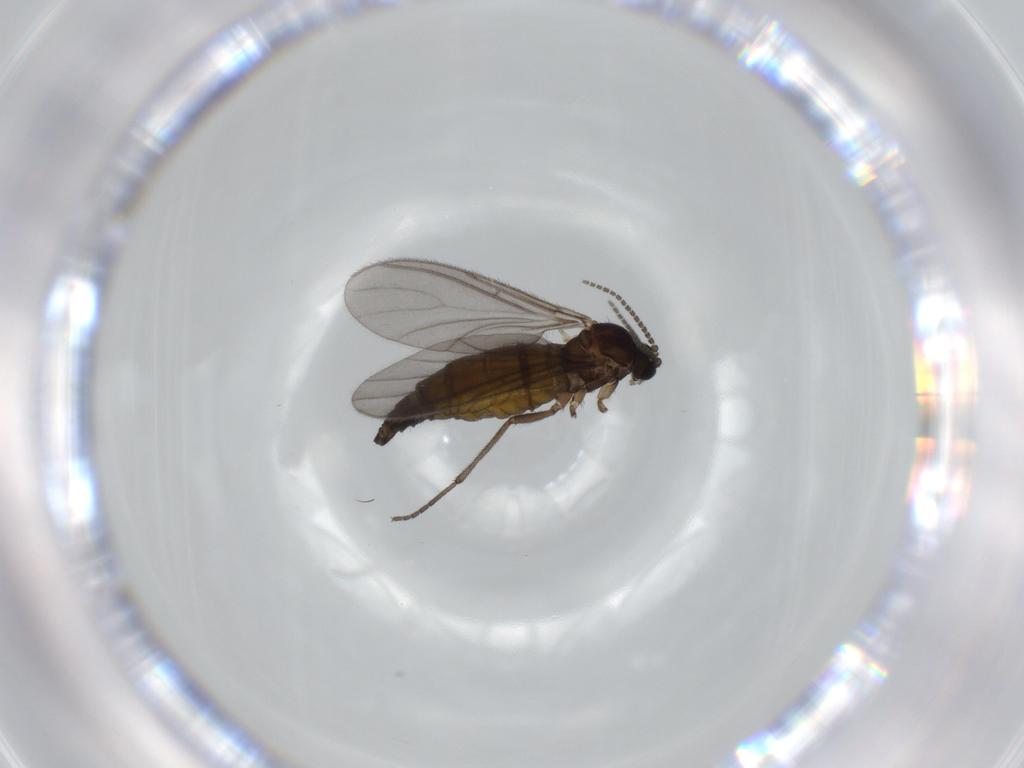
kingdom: Animalia
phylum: Arthropoda
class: Insecta
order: Diptera
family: Sciaridae
